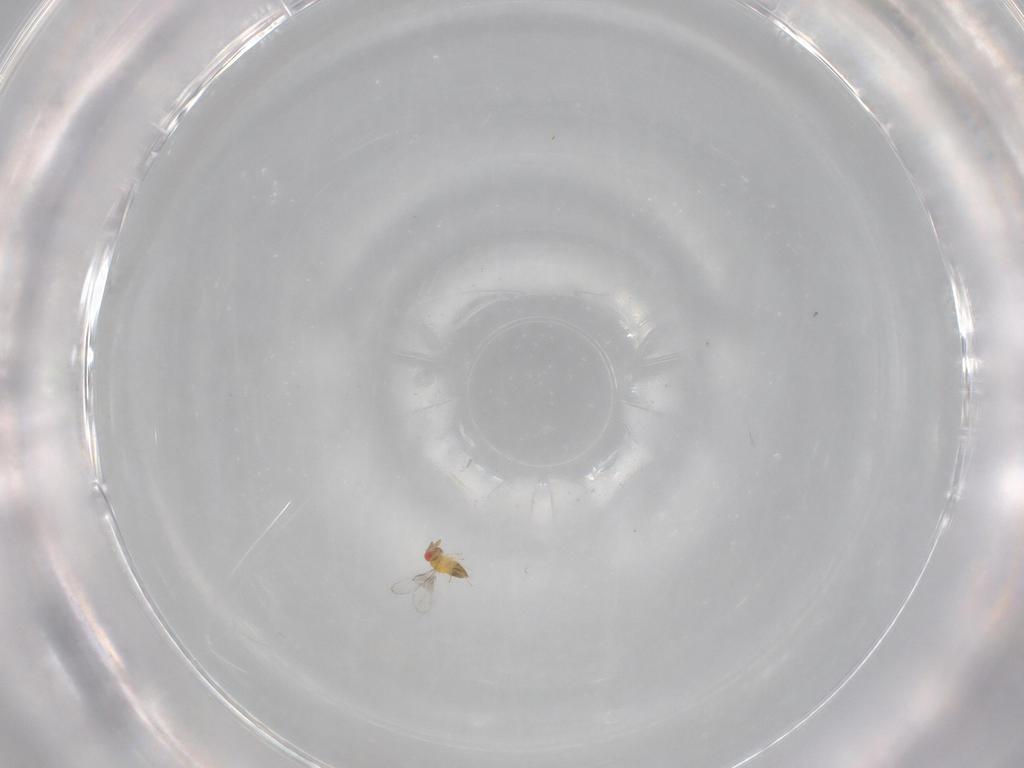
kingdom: Animalia
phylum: Arthropoda
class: Insecta
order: Hymenoptera
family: Trichogrammatidae
